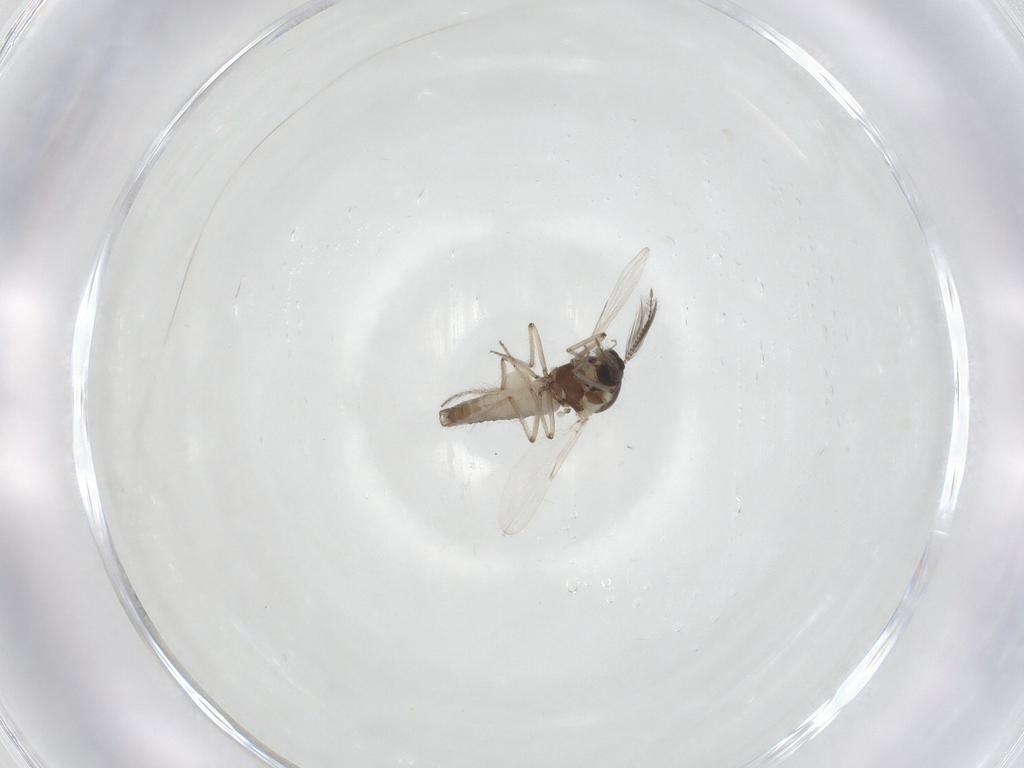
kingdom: Animalia
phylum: Arthropoda
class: Insecta
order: Diptera
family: Ceratopogonidae
